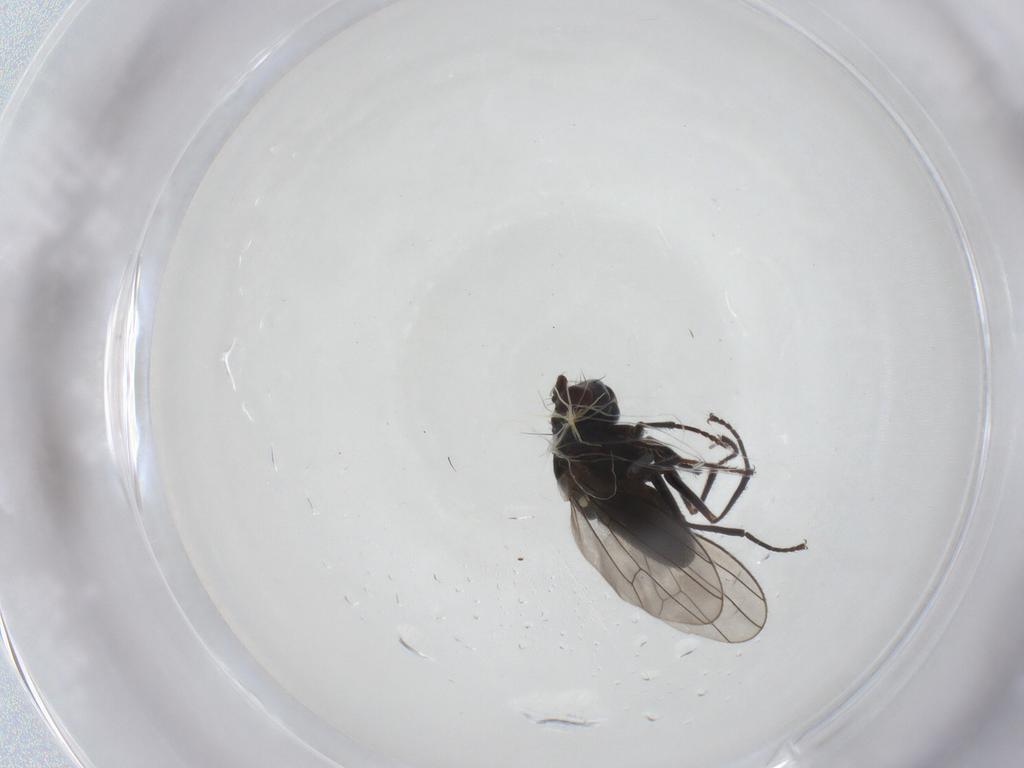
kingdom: Animalia
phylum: Arthropoda
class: Insecta
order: Diptera
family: Ephydridae
